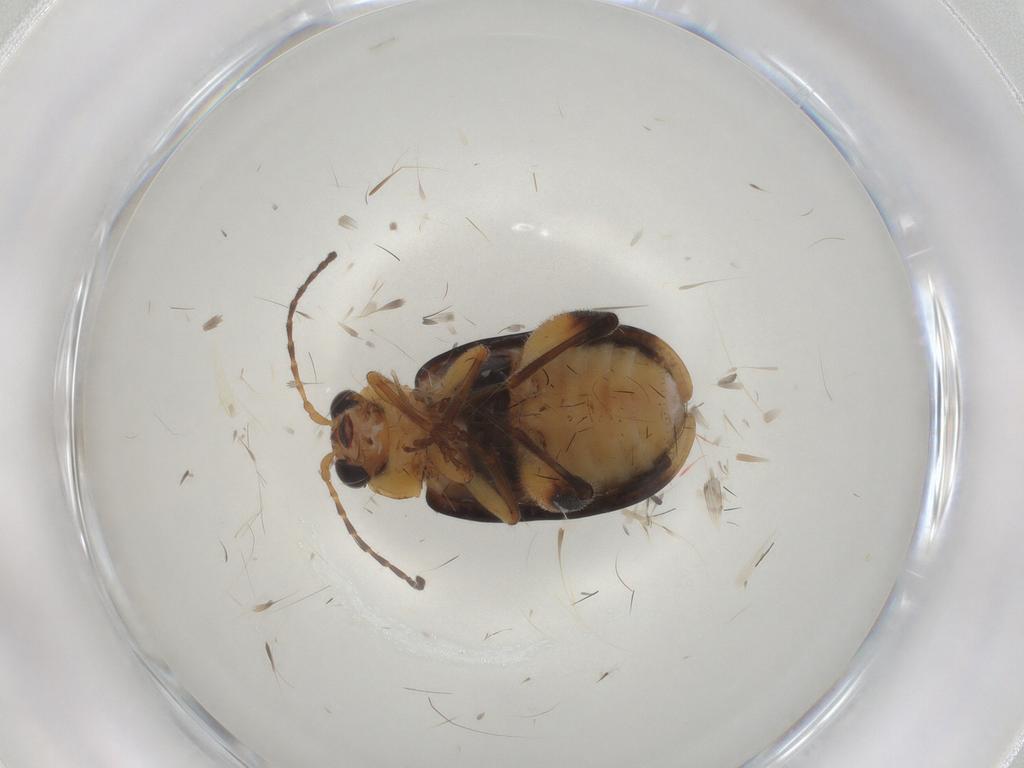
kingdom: Animalia
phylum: Arthropoda
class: Insecta
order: Coleoptera
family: Chrysomelidae
